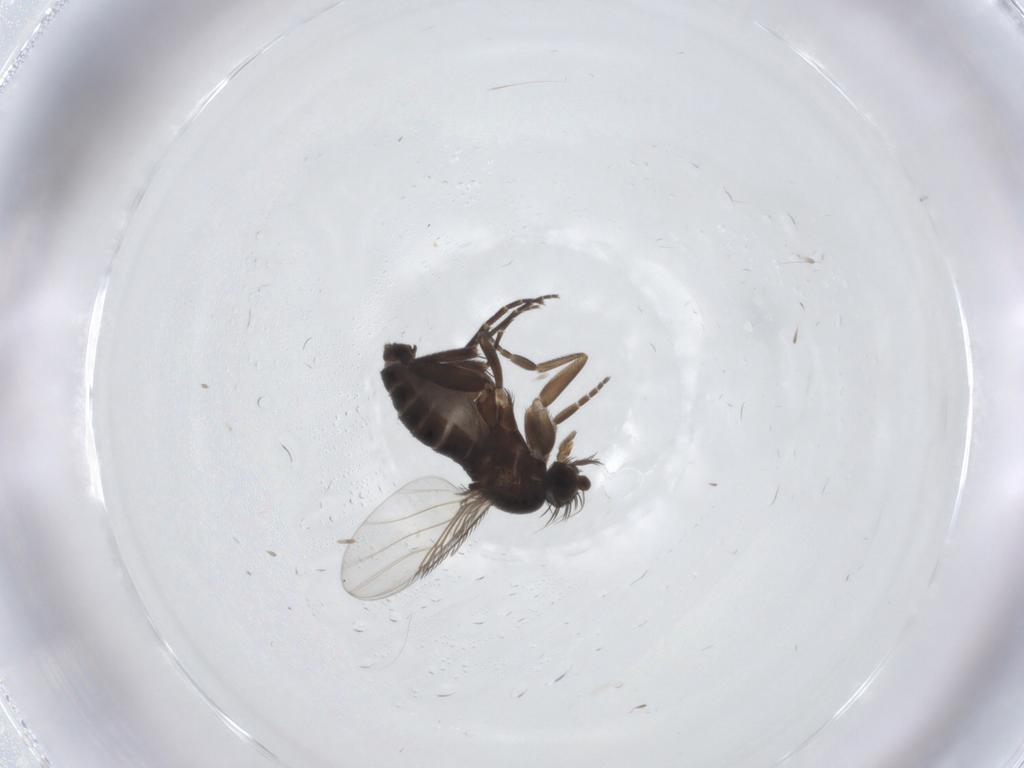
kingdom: Animalia
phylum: Arthropoda
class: Insecta
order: Diptera
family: Phoridae
